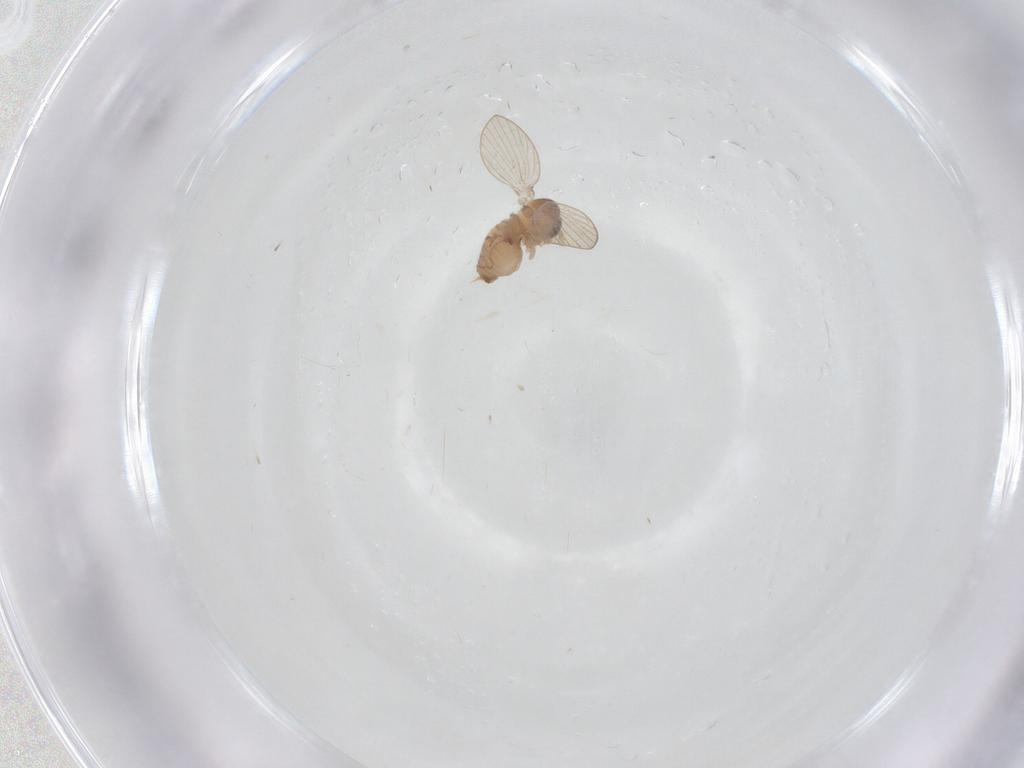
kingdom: Animalia
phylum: Arthropoda
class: Insecta
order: Diptera
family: Psychodidae
